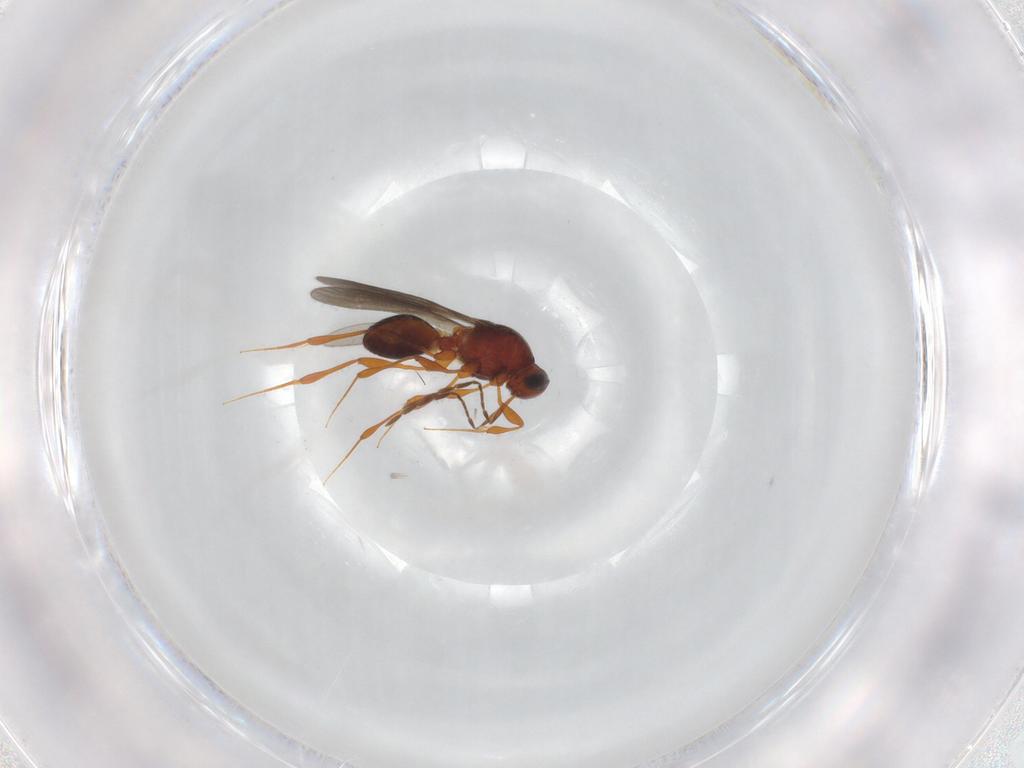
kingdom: Animalia
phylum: Arthropoda
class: Insecta
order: Hymenoptera
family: Platygastridae
